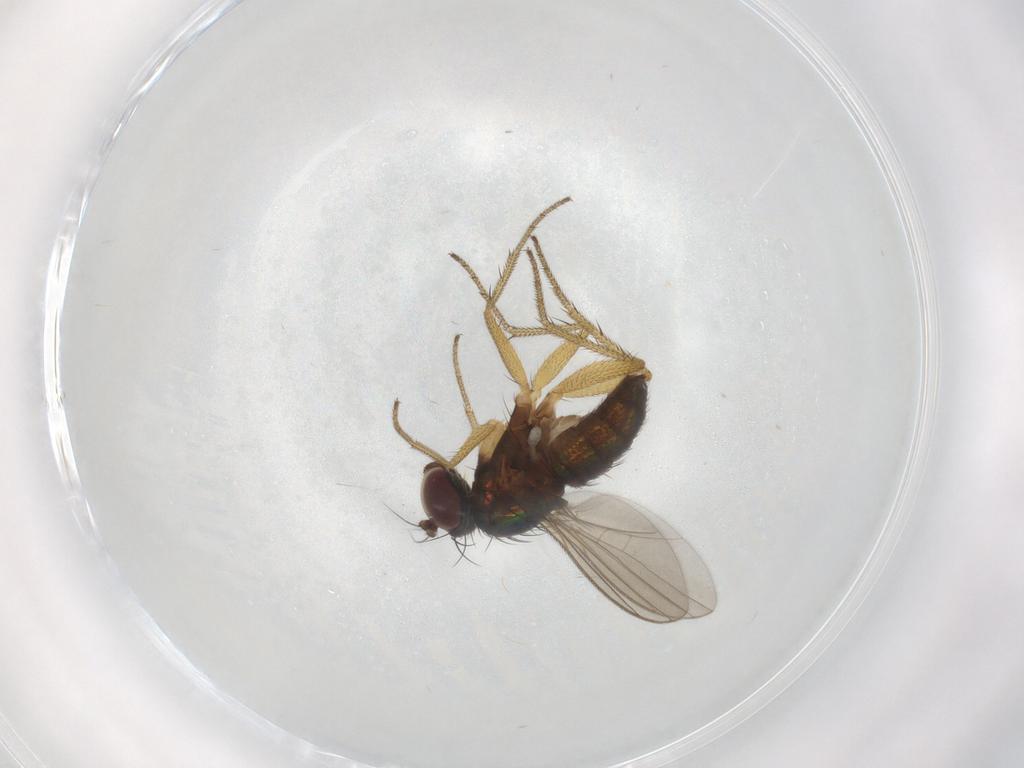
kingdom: Animalia
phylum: Arthropoda
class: Insecta
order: Diptera
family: Dolichopodidae
